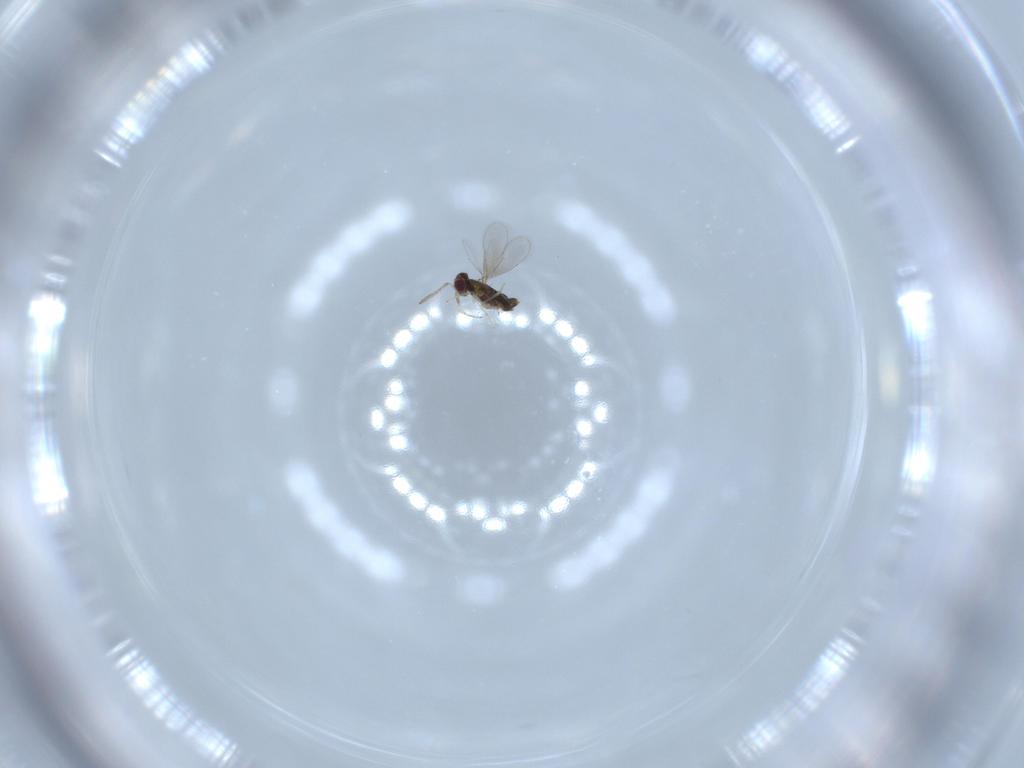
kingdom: Animalia
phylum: Arthropoda
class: Insecta
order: Hymenoptera
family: Aphelinidae
